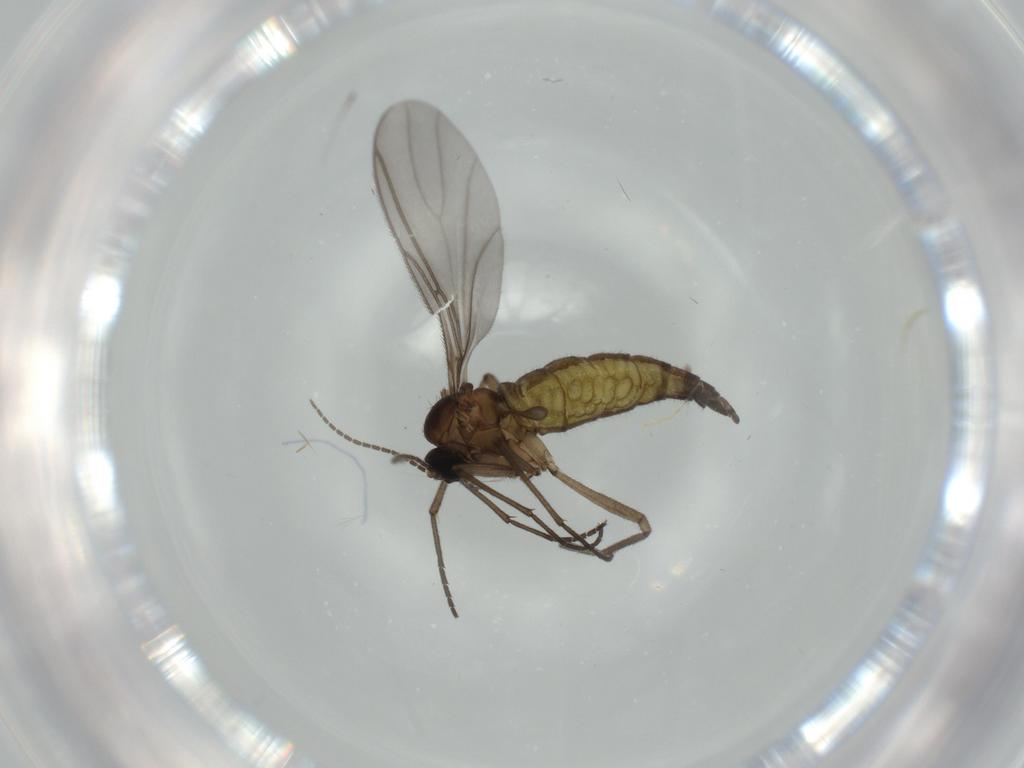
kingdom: Animalia
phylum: Arthropoda
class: Insecta
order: Diptera
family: Sciaridae
